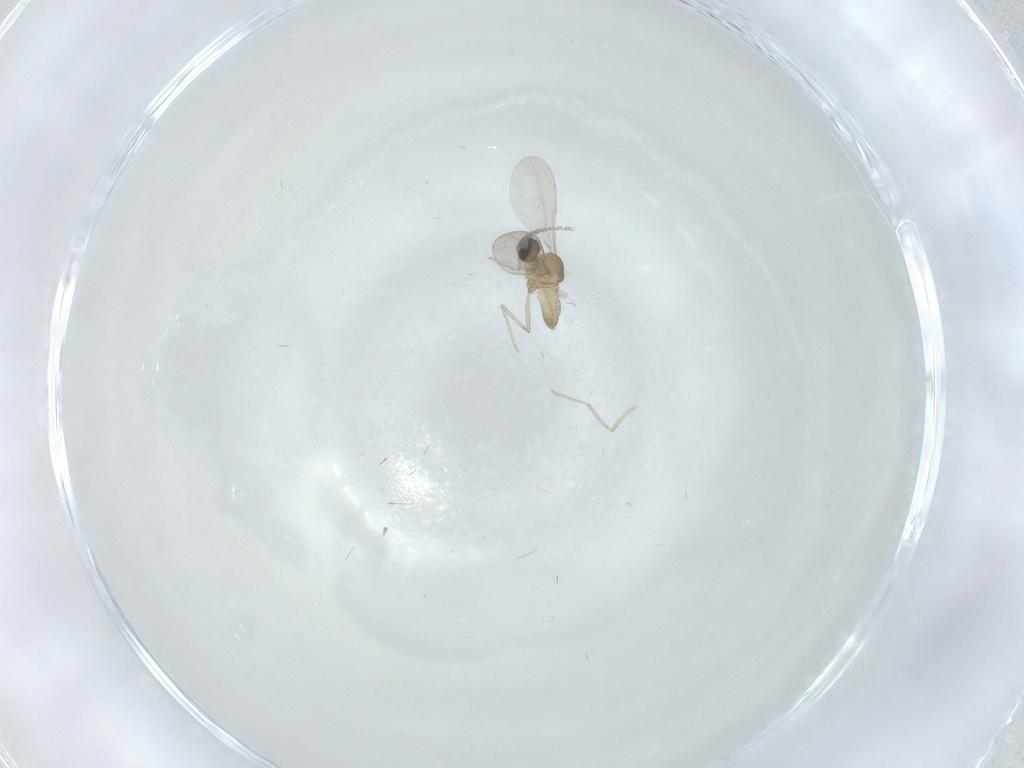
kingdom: Animalia
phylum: Arthropoda
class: Insecta
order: Diptera
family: Cecidomyiidae
